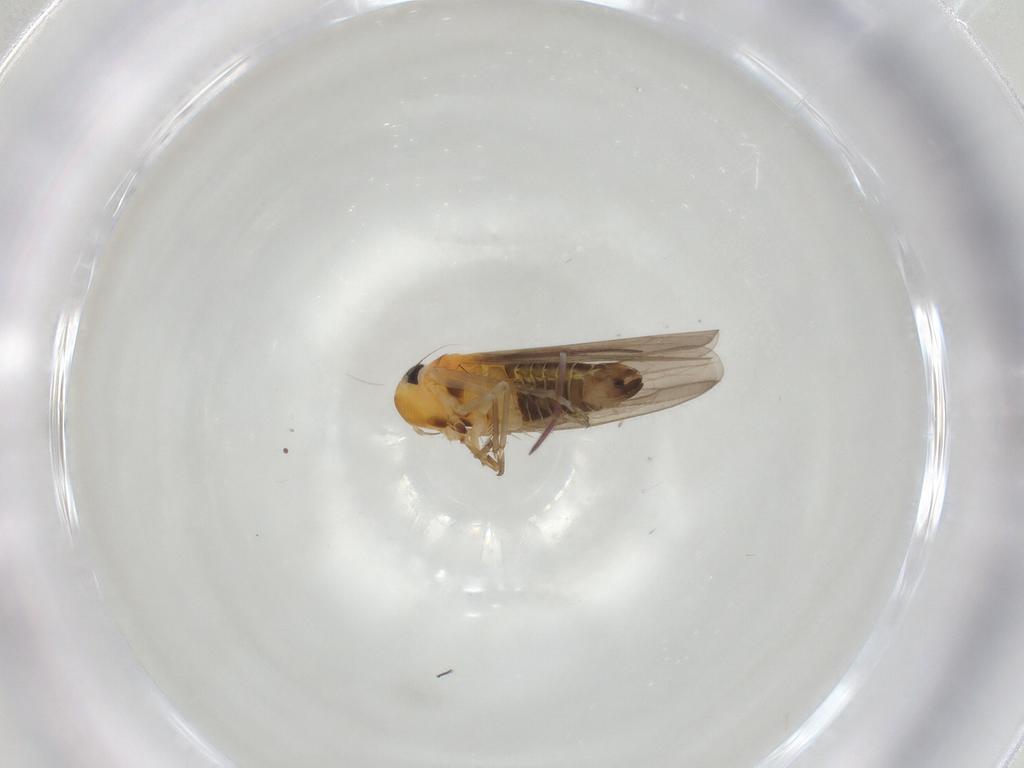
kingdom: Animalia
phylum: Arthropoda
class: Insecta
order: Hemiptera
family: Cicadellidae
